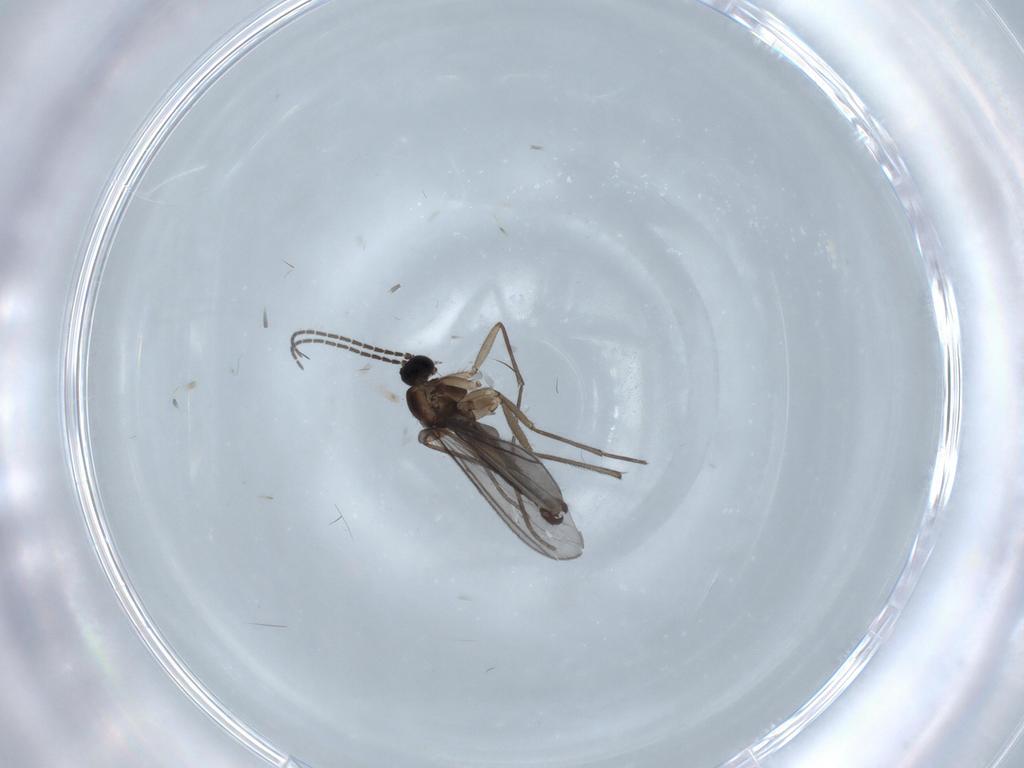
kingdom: Animalia
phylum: Arthropoda
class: Insecta
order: Diptera
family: Sciaridae
